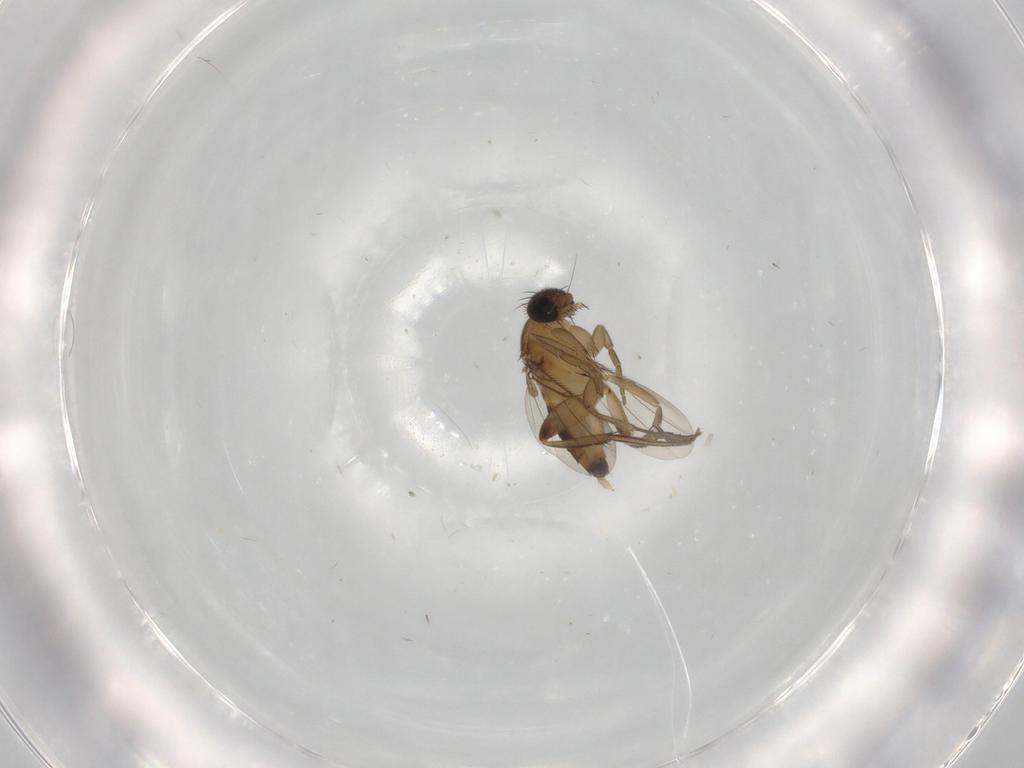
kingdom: Animalia
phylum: Arthropoda
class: Insecta
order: Diptera
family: Phoridae
